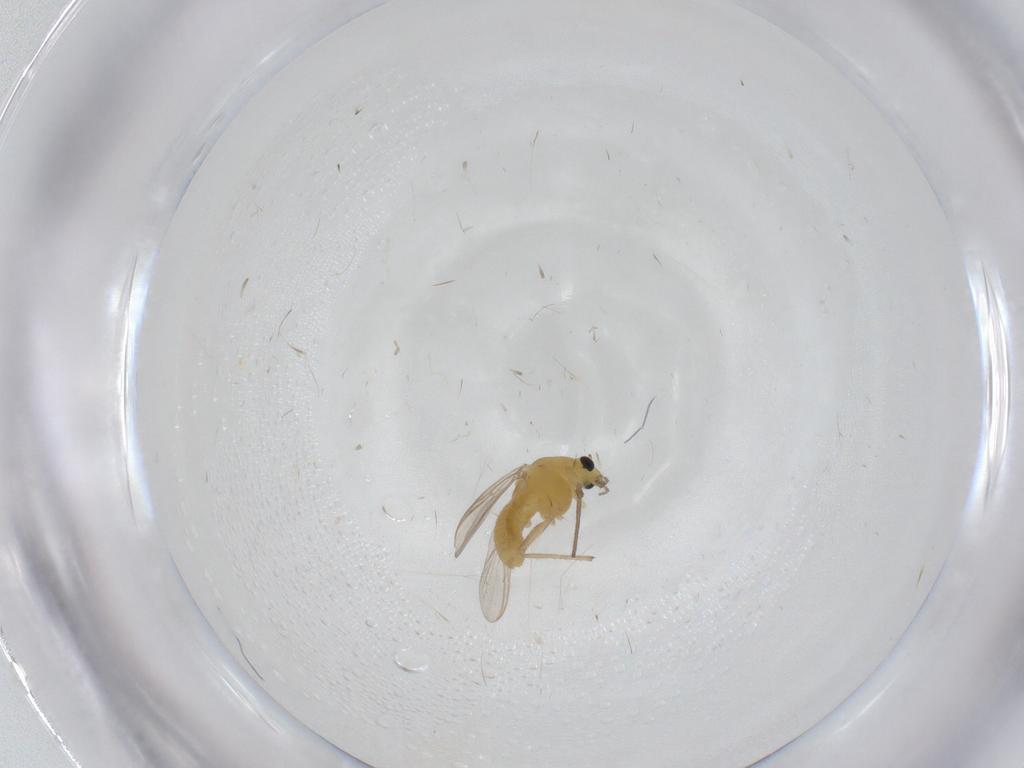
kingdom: Animalia
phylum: Arthropoda
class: Insecta
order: Diptera
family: Chironomidae
